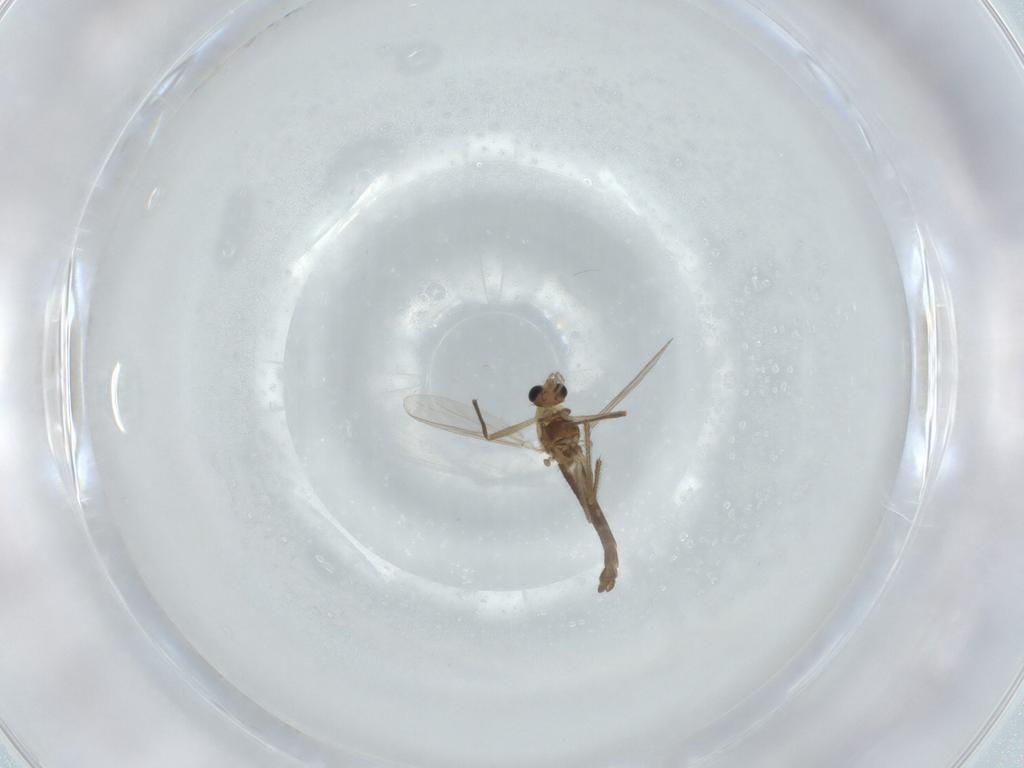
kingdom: Animalia
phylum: Arthropoda
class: Insecta
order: Diptera
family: Chironomidae
